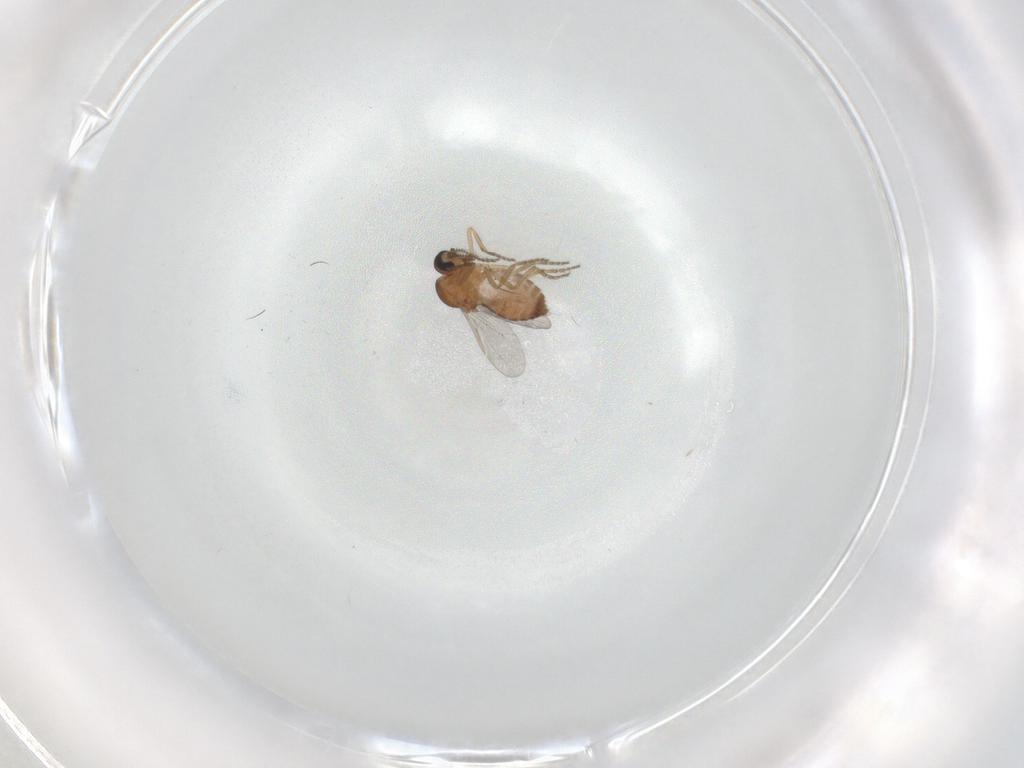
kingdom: Animalia
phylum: Arthropoda
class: Insecta
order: Diptera
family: Ceratopogonidae
